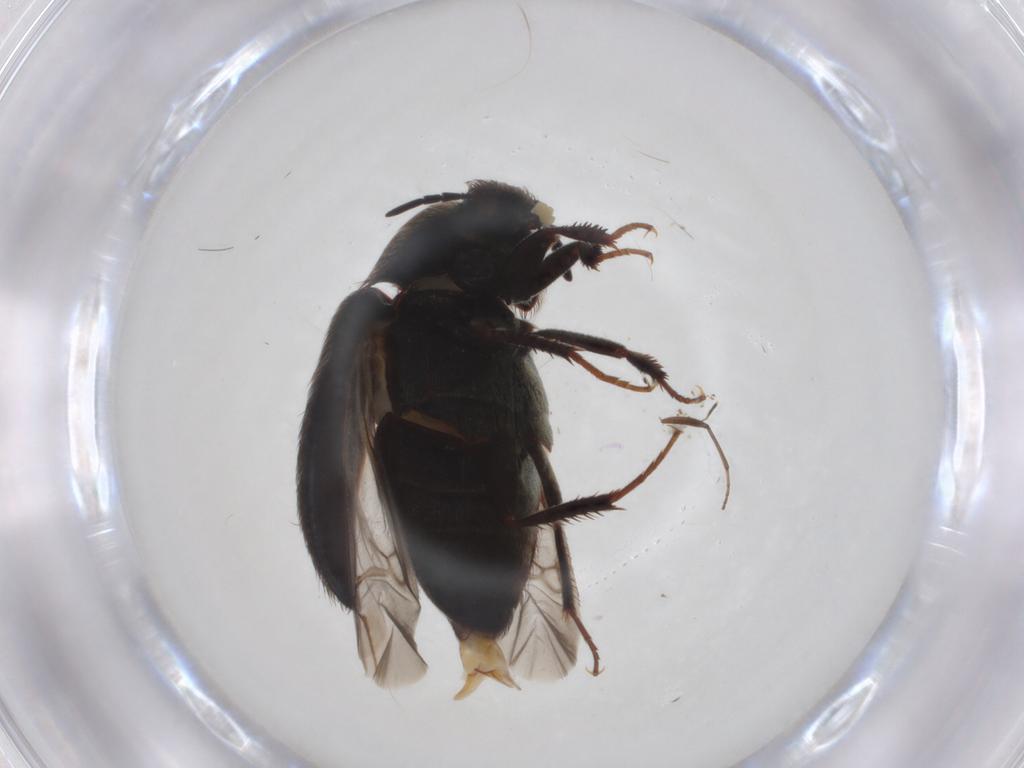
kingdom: Animalia
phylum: Arthropoda
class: Insecta
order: Coleoptera
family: Dermestidae
